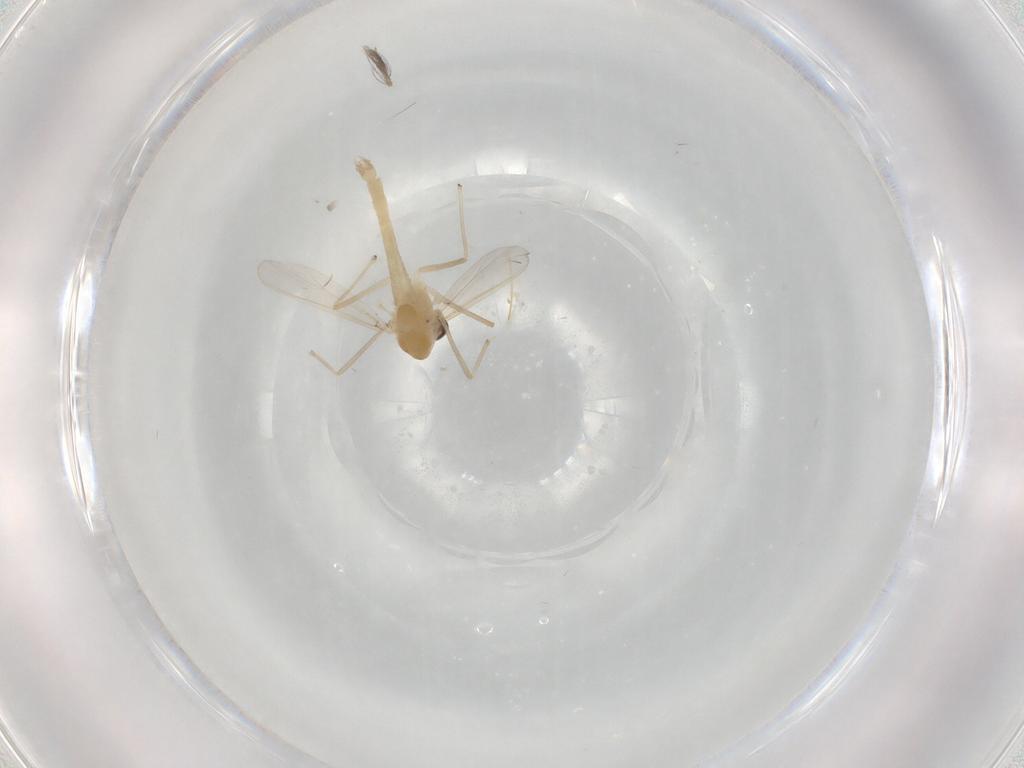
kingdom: Animalia
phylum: Arthropoda
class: Insecta
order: Diptera
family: Chironomidae
